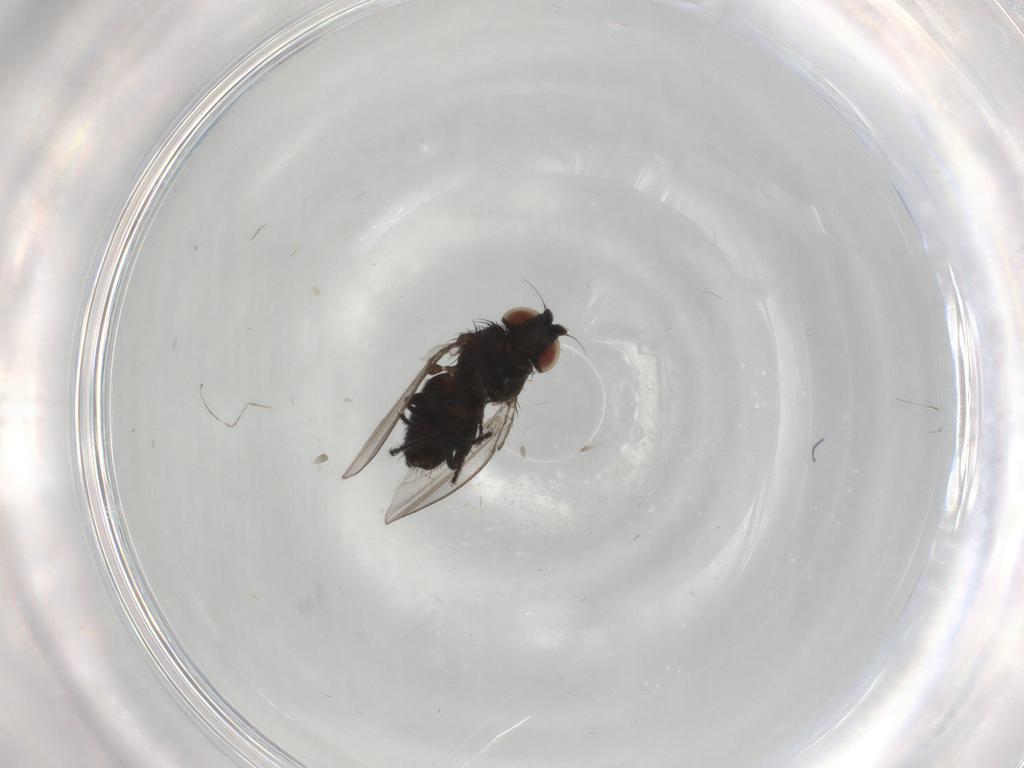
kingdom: Animalia
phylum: Arthropoda
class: Insecta
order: Diptera
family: Milichiidae
